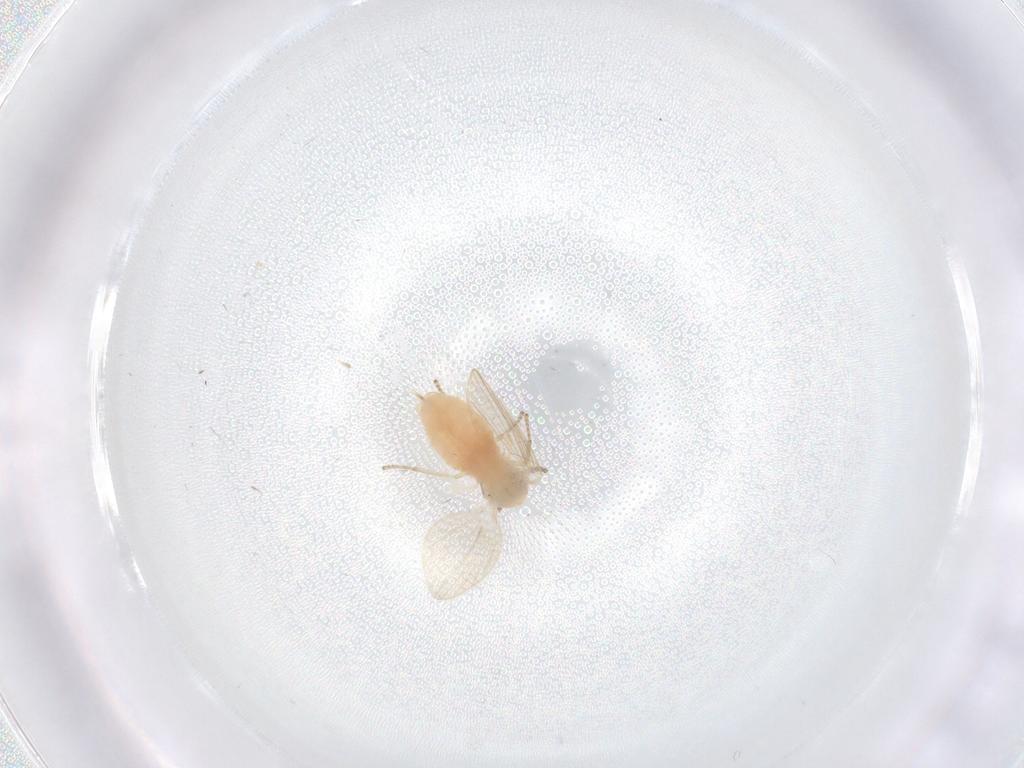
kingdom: Animalia
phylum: Arthropoda
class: Insecta
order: Diptera
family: Psychodidae
